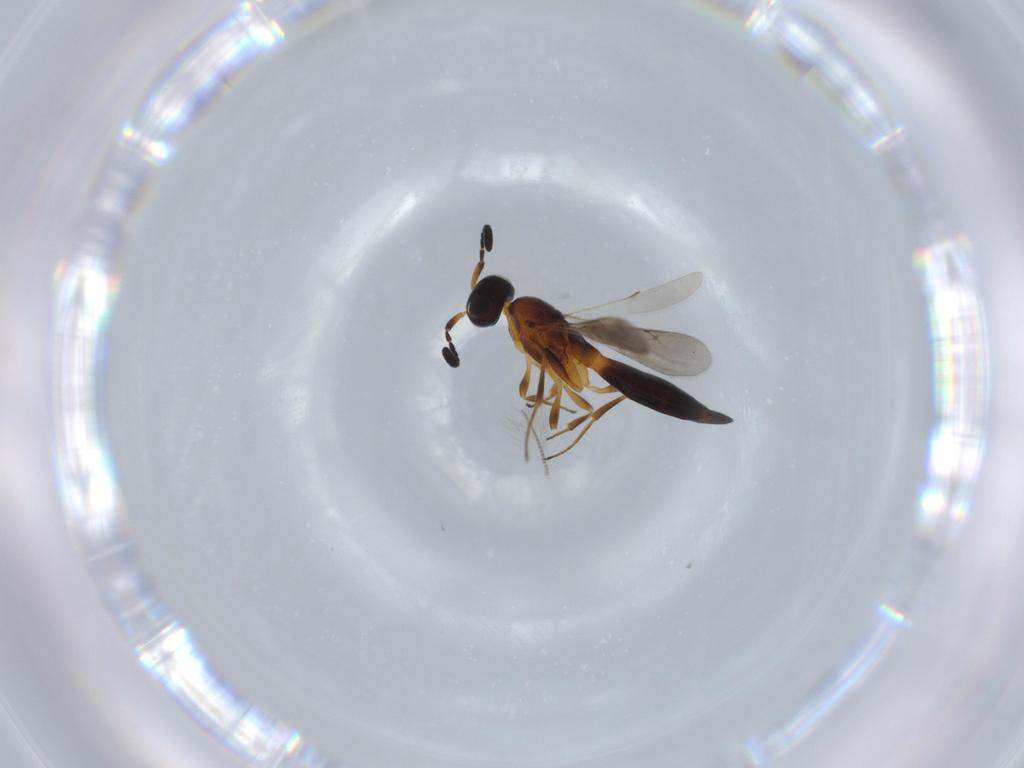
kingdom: Animalia
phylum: Arthropoda
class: Insecta
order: Hymenoptera
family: Scelionidae
